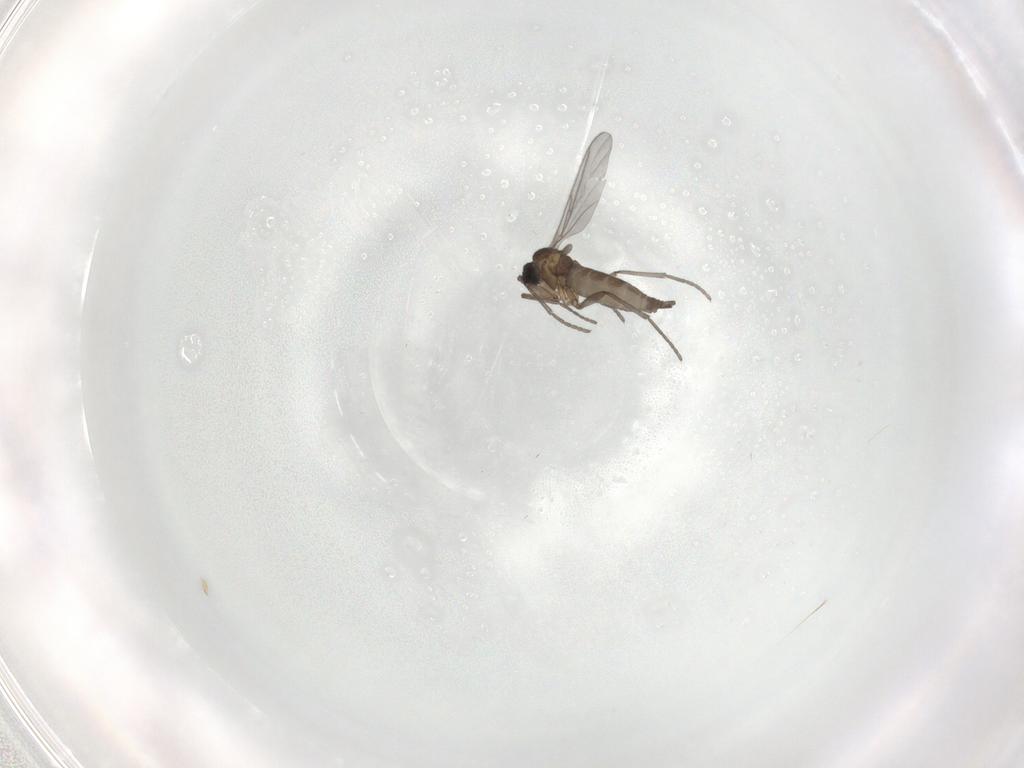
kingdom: Animalia
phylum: Arthropoda
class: Insecta
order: Diptera
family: Sciaridae
